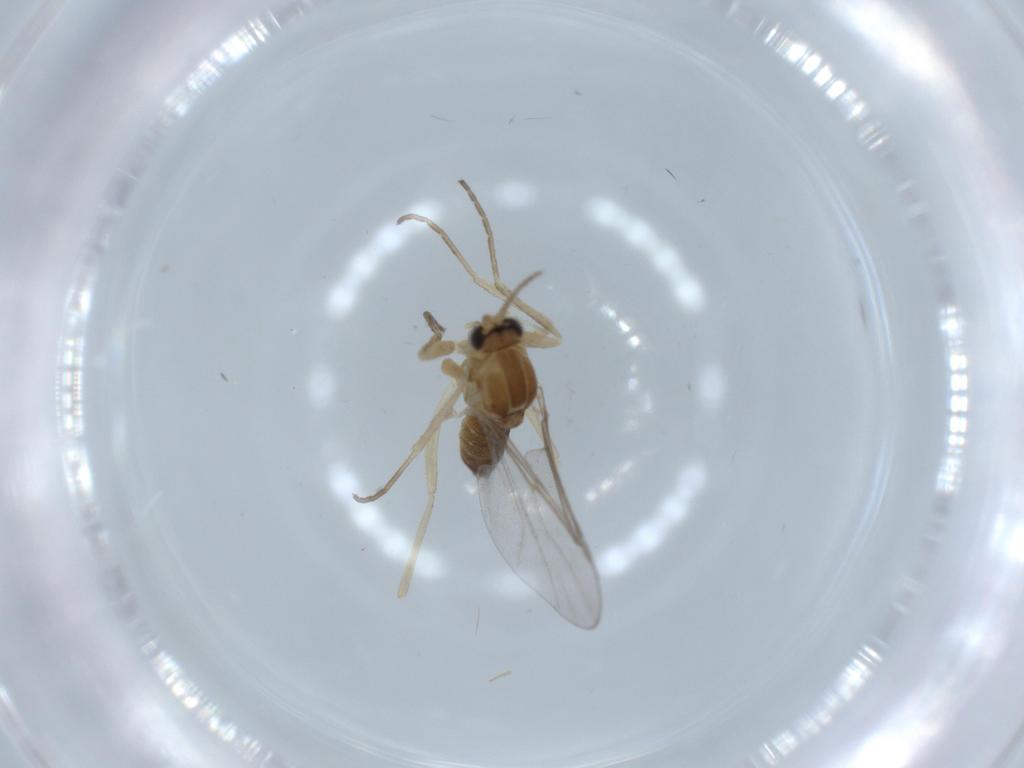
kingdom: Animalia
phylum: Arthropoda
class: Insecta
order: Diptera
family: Cecidomyiidae
